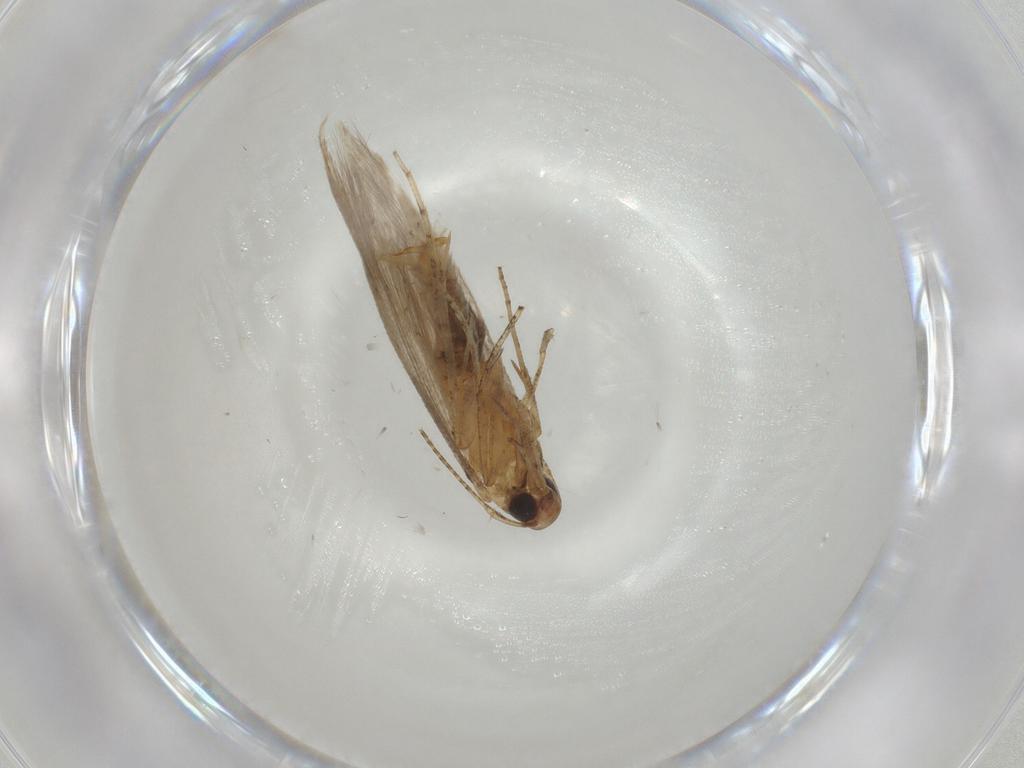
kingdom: Animalia
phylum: Arthropoda
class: Insecta
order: Lepidoptera
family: Elachistidae
